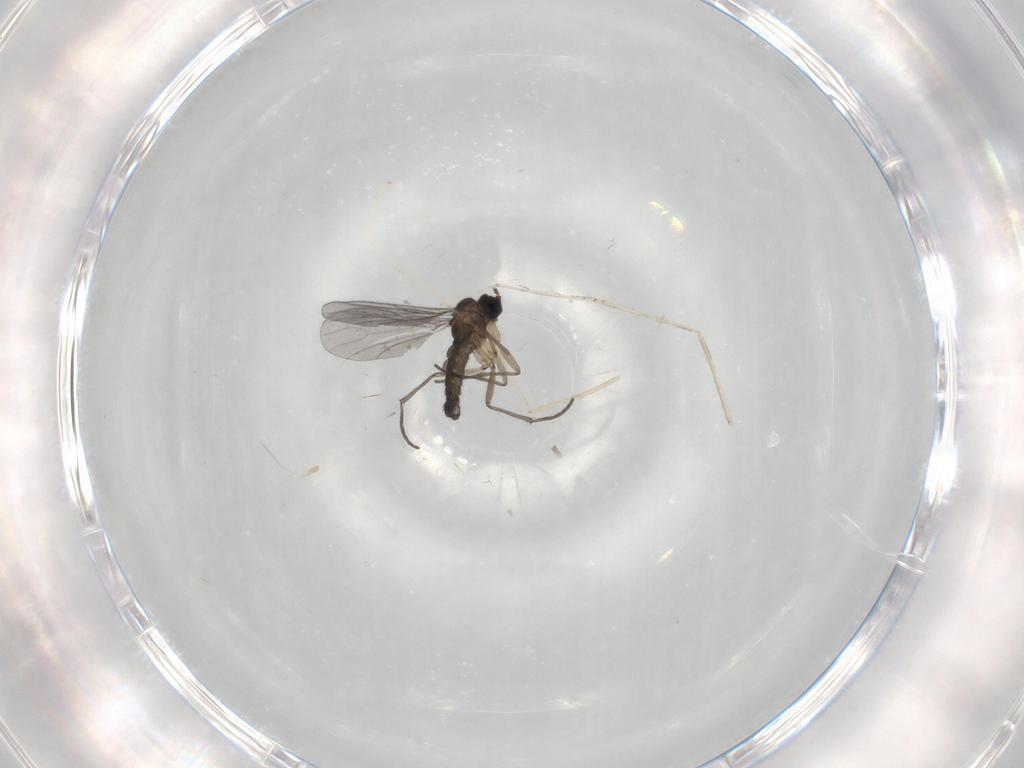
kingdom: Animalia
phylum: Arthropoda
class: Insecta
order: Diptera
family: Sciaridae
